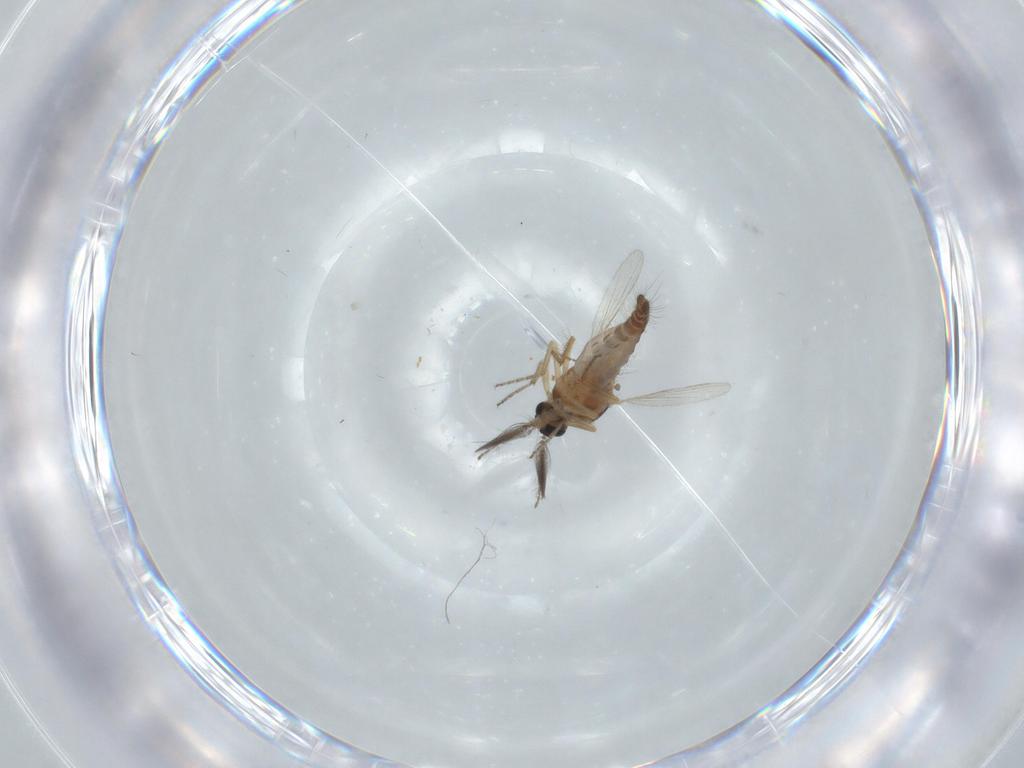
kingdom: Animalia
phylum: Arthropoda
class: Insecta
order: Diptera
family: Ceratopogonidae
